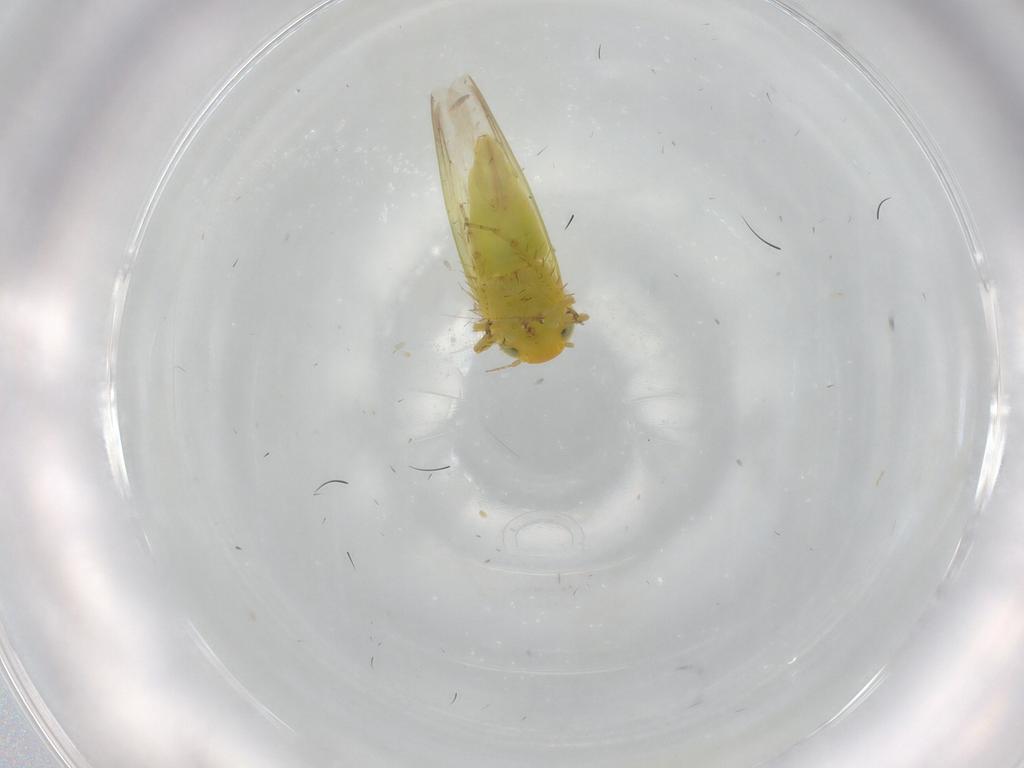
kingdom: Animalia
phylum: Arthropoda
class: Insecta
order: Hemiptera
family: Cicadellidae
